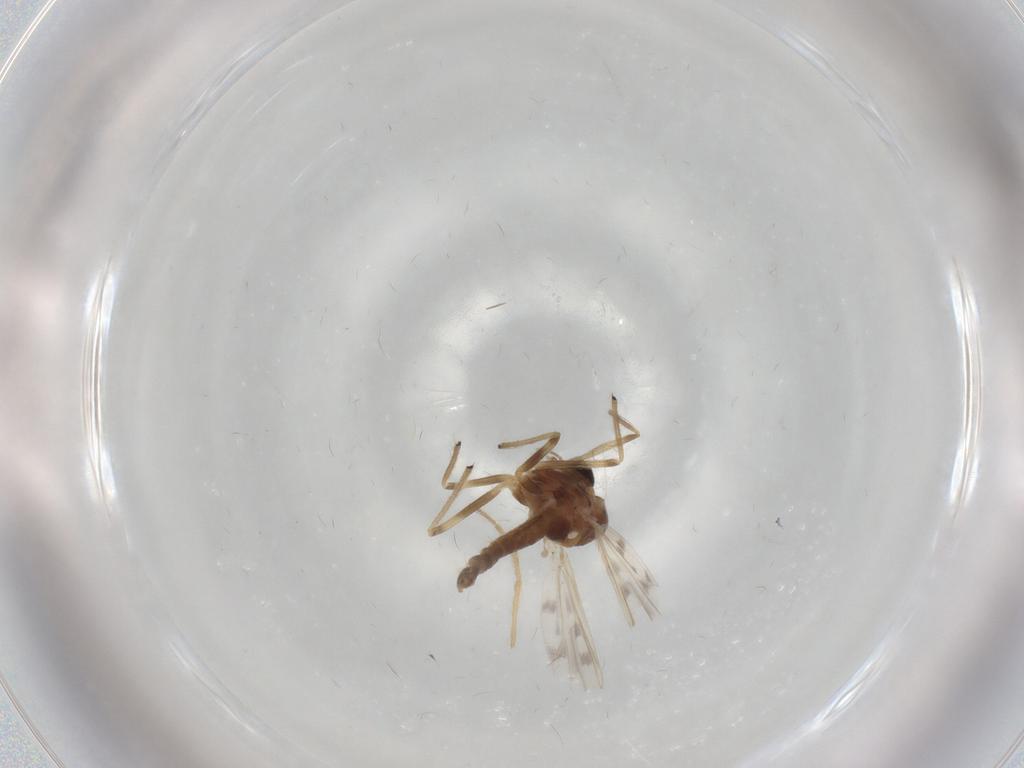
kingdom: Animalia
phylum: Arthropoda
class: Insecta
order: Diptera
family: Chironomidae
